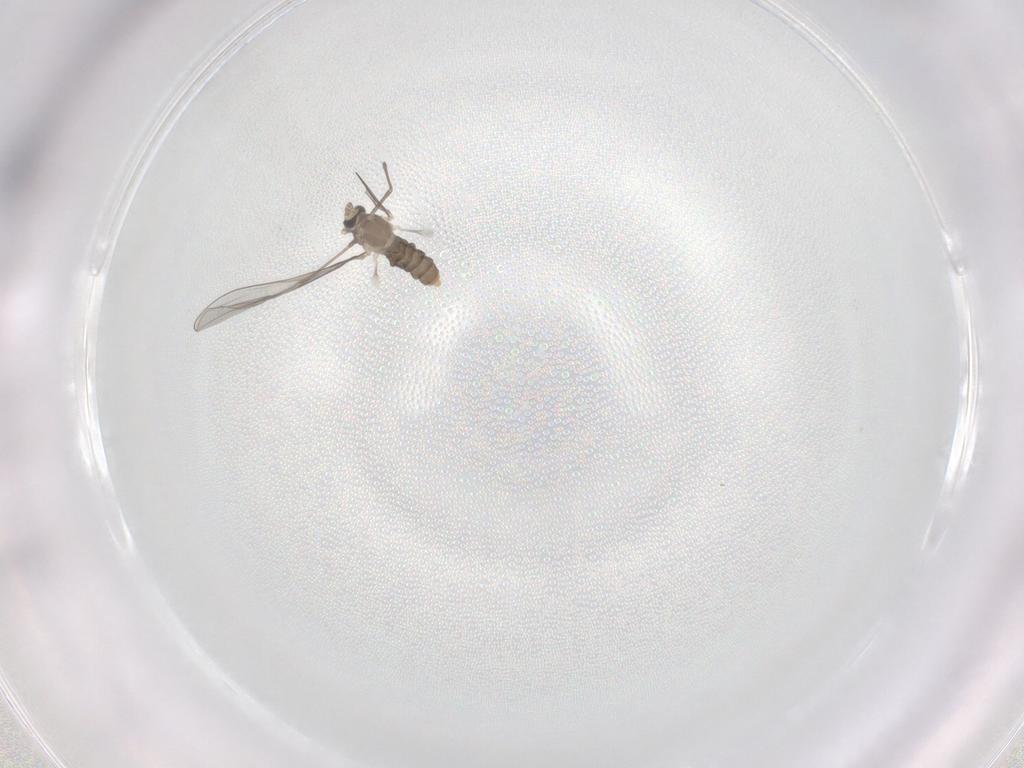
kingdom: Animalia
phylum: Arthropoda
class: Insecta
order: Diptera
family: Cecidomyiidae
